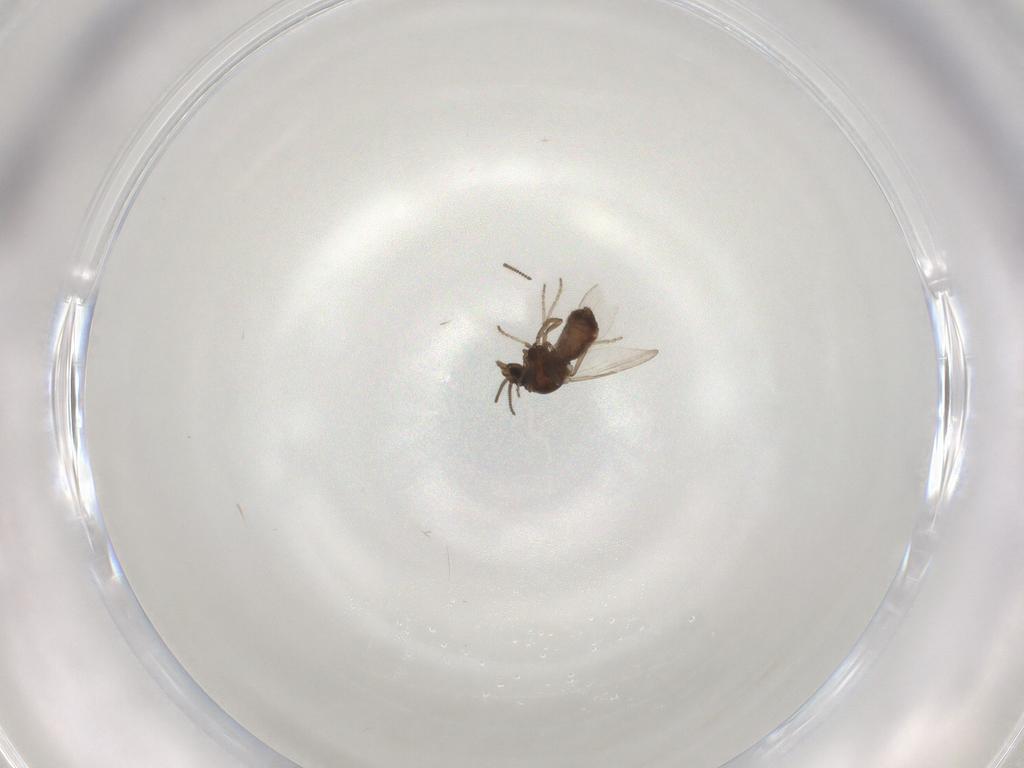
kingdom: Animalia
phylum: Arthropoda
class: Insecta
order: Diptera
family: Ceratopogonidae
